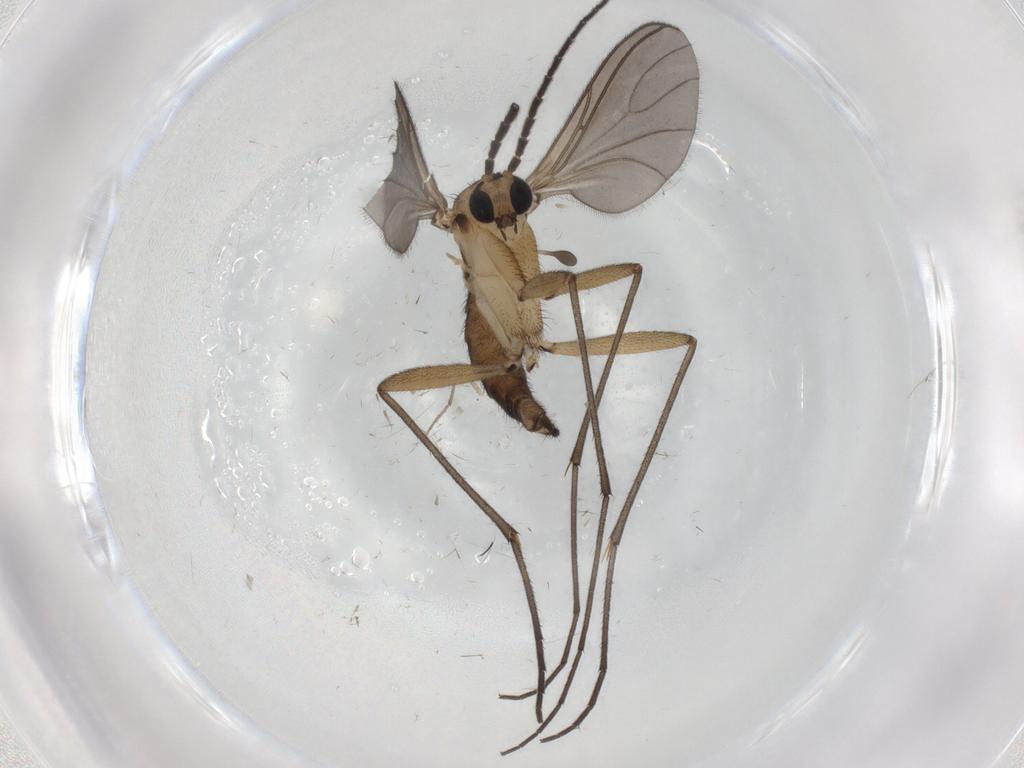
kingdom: Animalia
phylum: Arthropoda
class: Insecta
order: Diptera
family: Sciaridae
